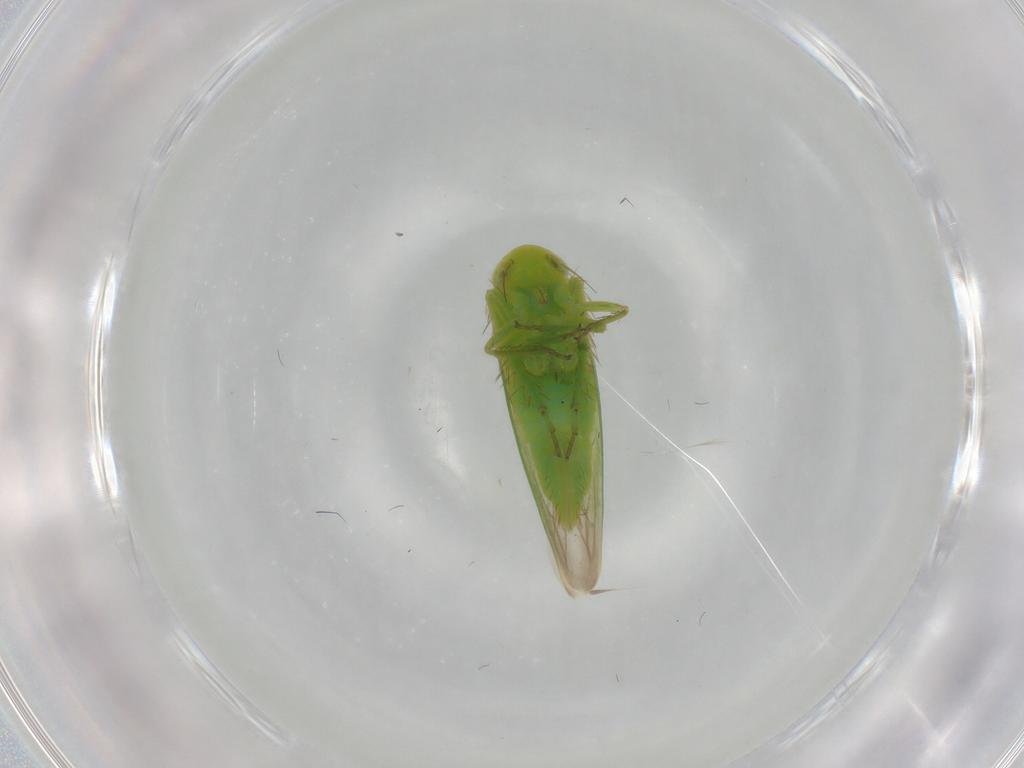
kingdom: Animalia
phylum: Arthropoda
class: Insecta
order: Hemiptera
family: Cicadellidae
